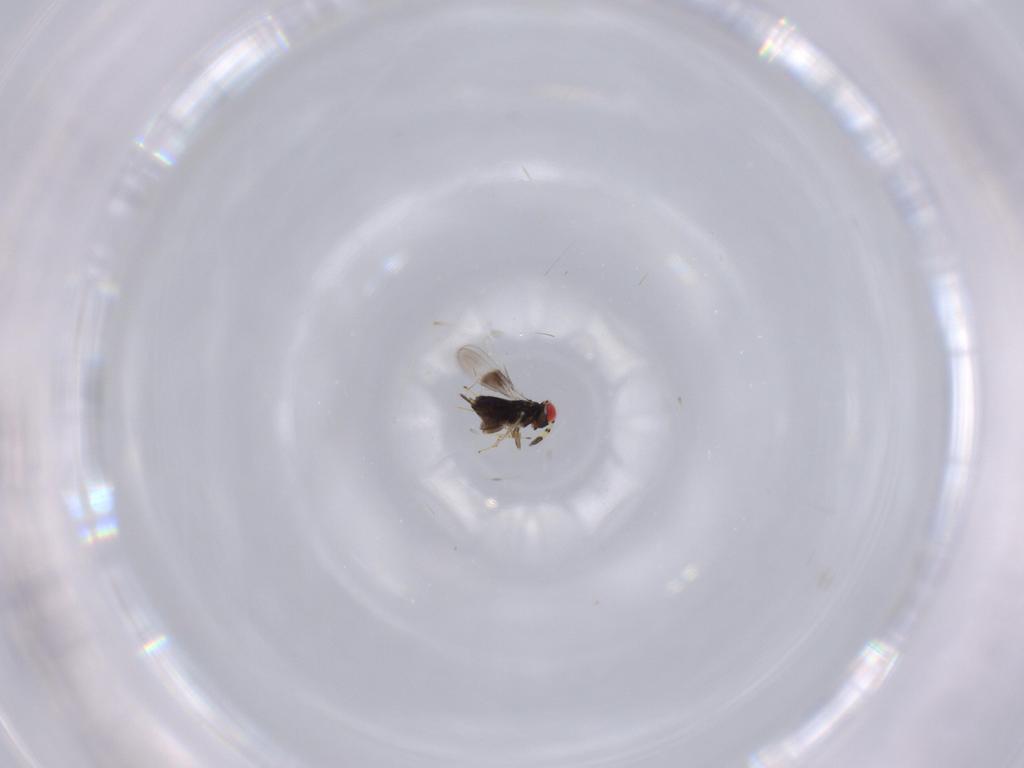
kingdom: Animalia
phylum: Arthropoda
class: Insecta
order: Hymenoptera
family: Azotidae
